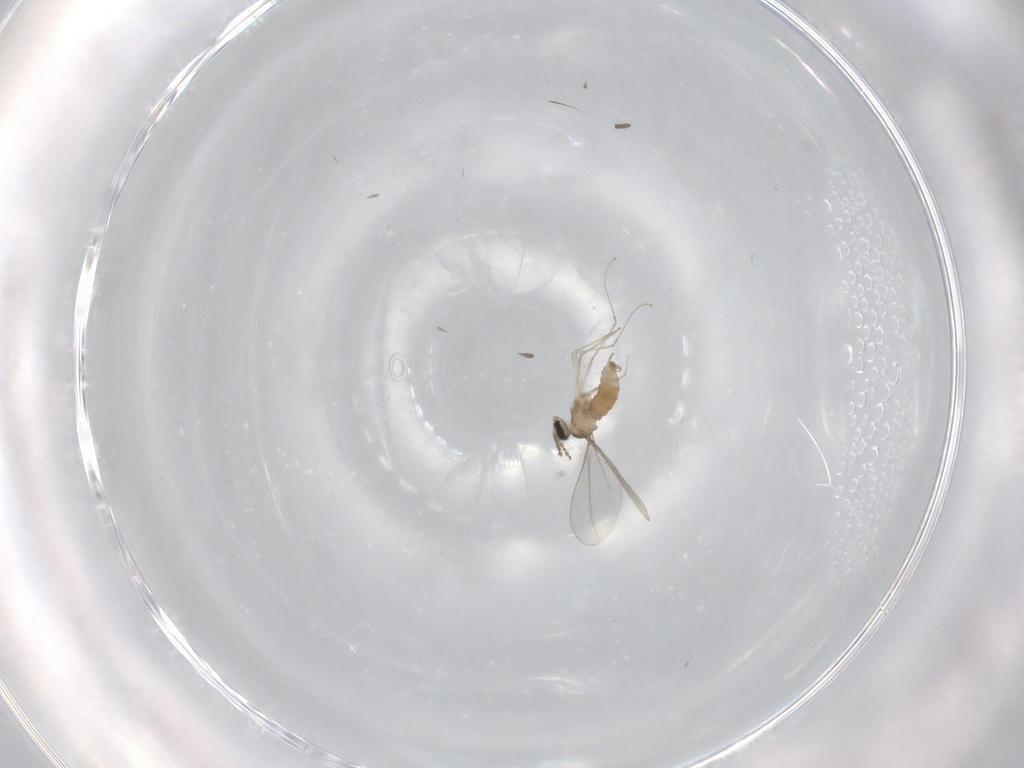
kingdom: Animalia
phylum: Arthropoda
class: Insecta
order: Diptera
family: Cecidomyiidae
